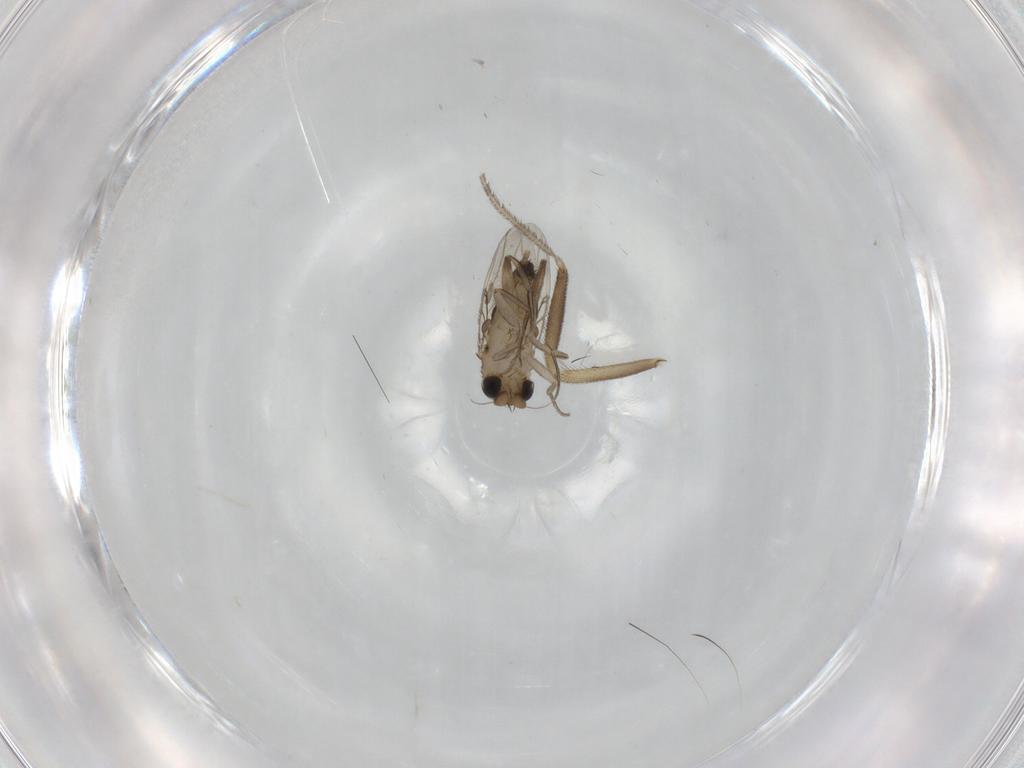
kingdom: Animalia
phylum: Arthropoda
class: Insecta
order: Diptera
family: Phoridae
